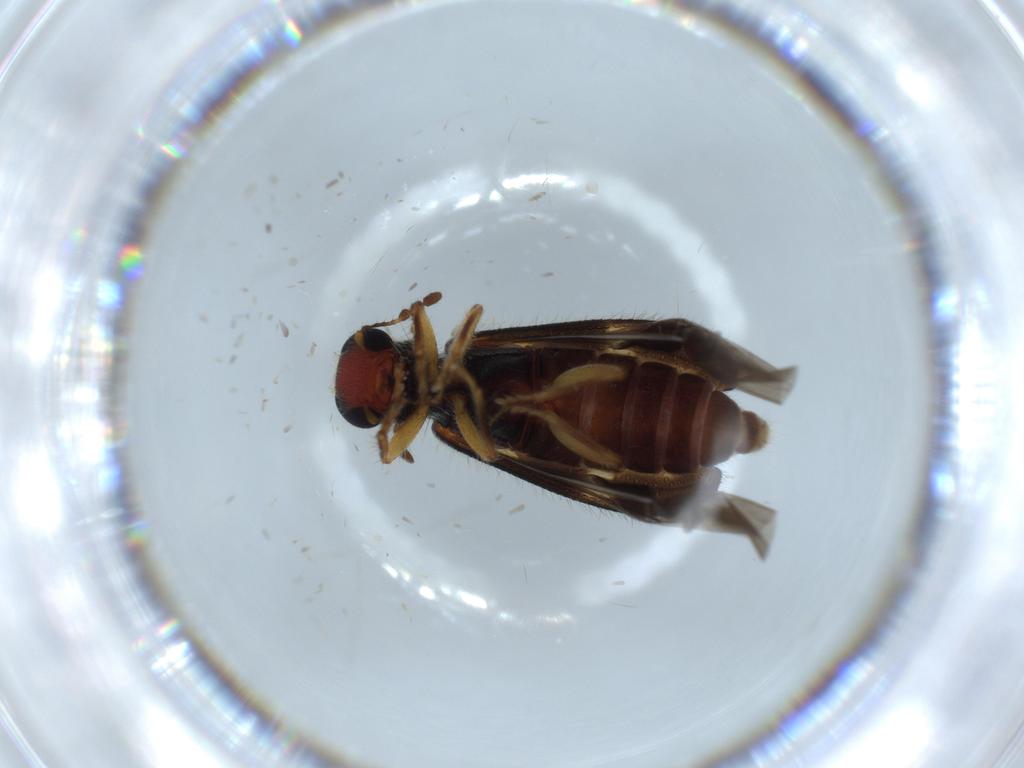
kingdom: Animalia
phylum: Arthropoda
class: Insecta
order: Coleoptera
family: Cleridae
